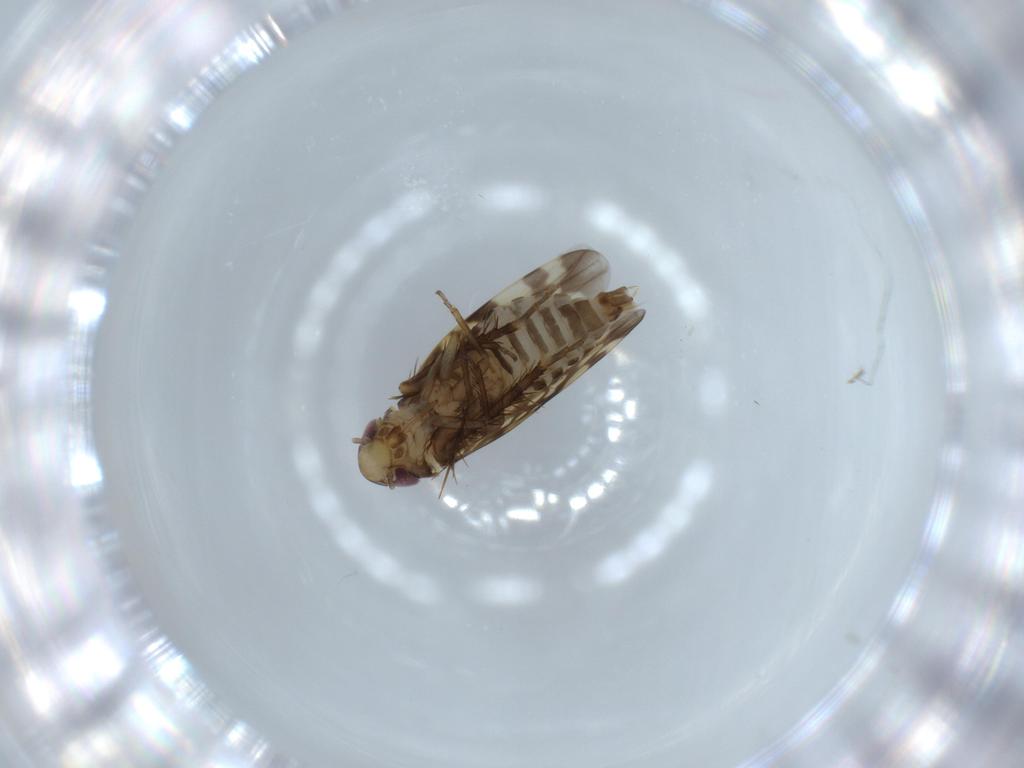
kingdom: Animalia
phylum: Arthropoda
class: Insecta
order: Hemiptera
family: Cicadellidae
